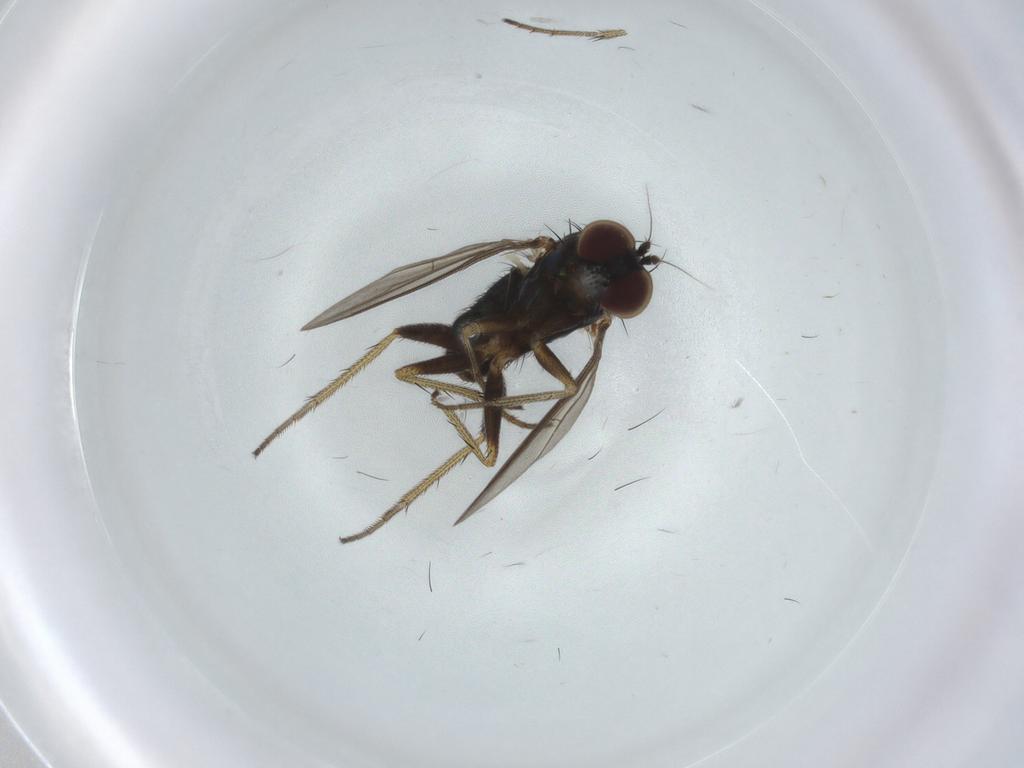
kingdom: Animalia
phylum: Arthropoda
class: Insecta
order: Diptera
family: Dolichopodidae
